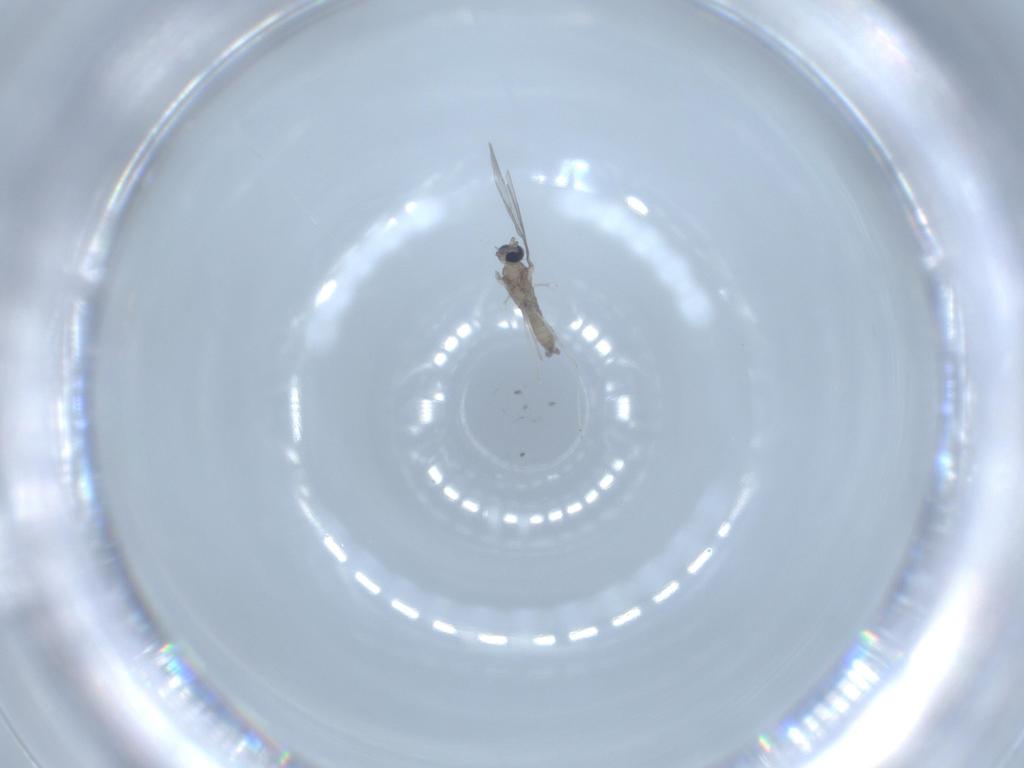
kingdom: Animalia
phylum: Arthropoda
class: Insecta
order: Diptera
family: Cecidomyiidae
